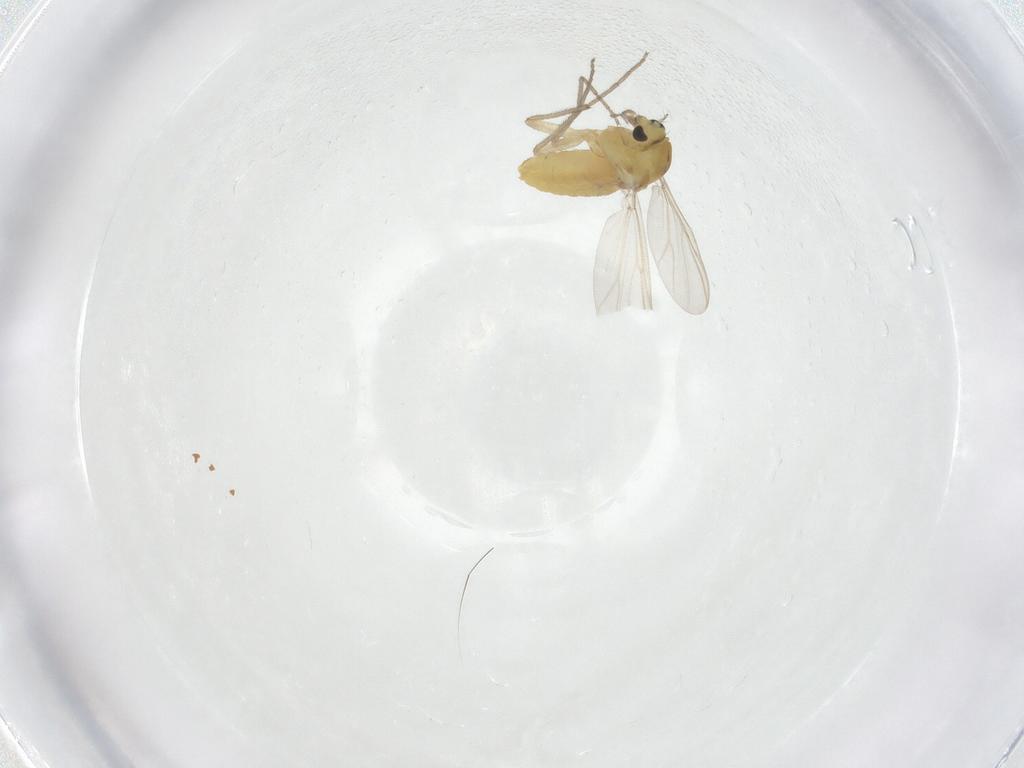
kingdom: Animalia
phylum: Arthropoda
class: Insecta
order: Diptera
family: Chironomidae
